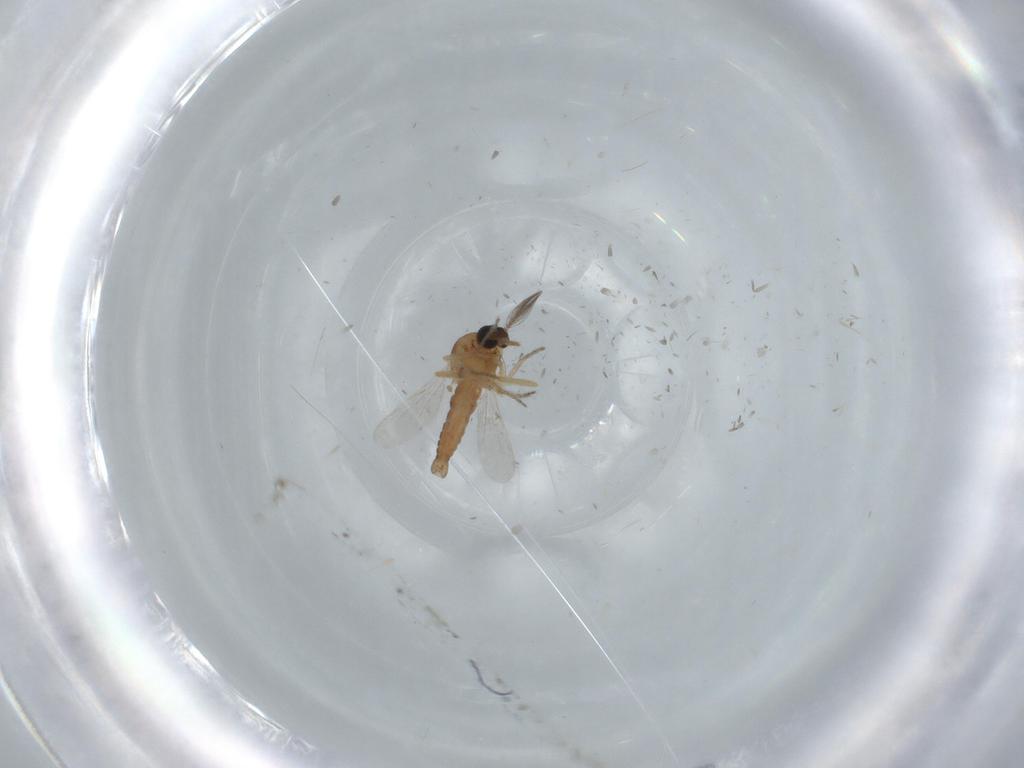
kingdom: Animalia
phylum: Arthropoda
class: Insecta
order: Diptera
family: Ceratopogonidae
